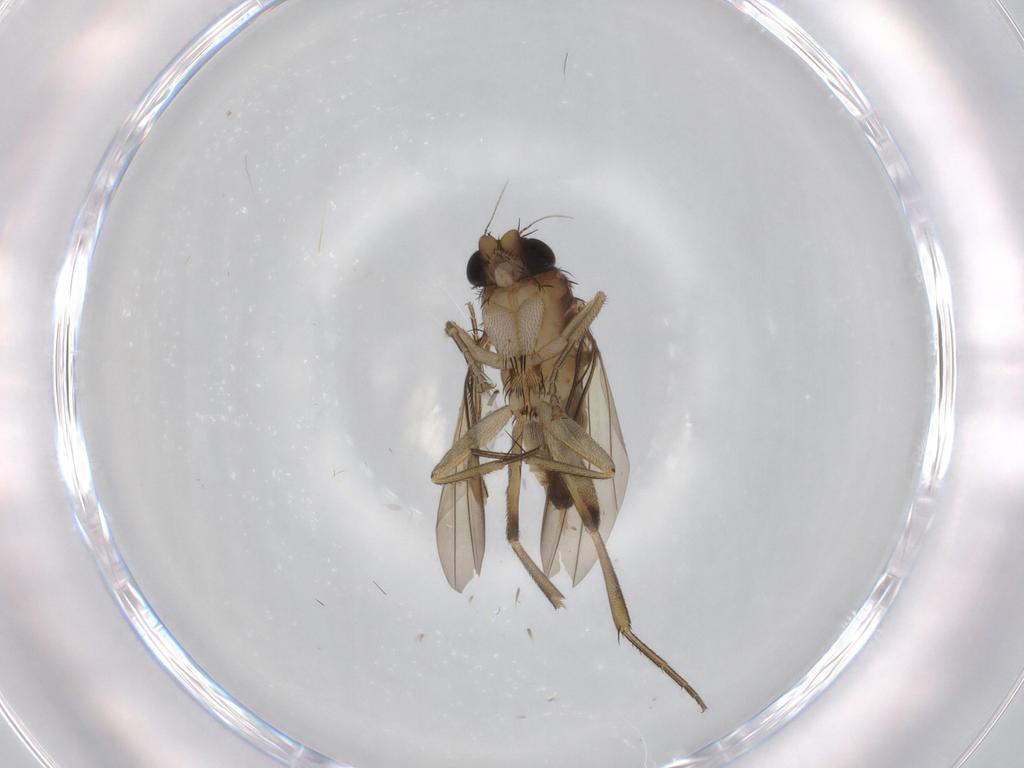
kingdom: Animalia
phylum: Arthropoda
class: Insecta
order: Diptera
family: Phoridae
